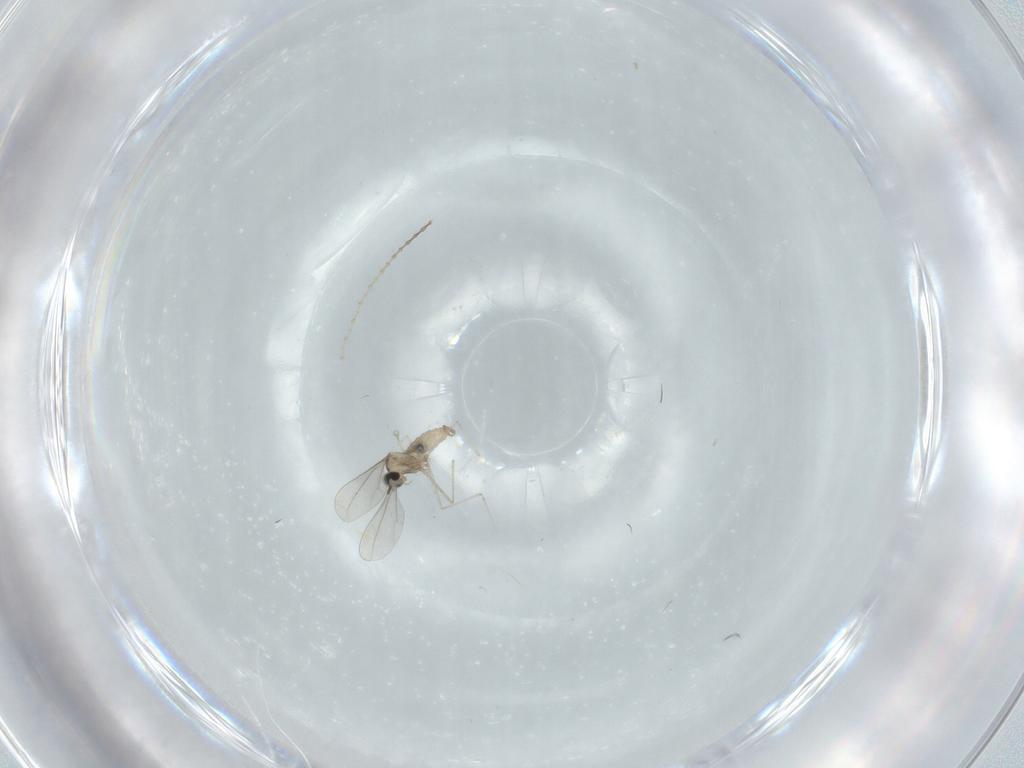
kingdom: Animalia
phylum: Arthropoda
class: Insecta
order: Diptera
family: Cecidomyiidae
